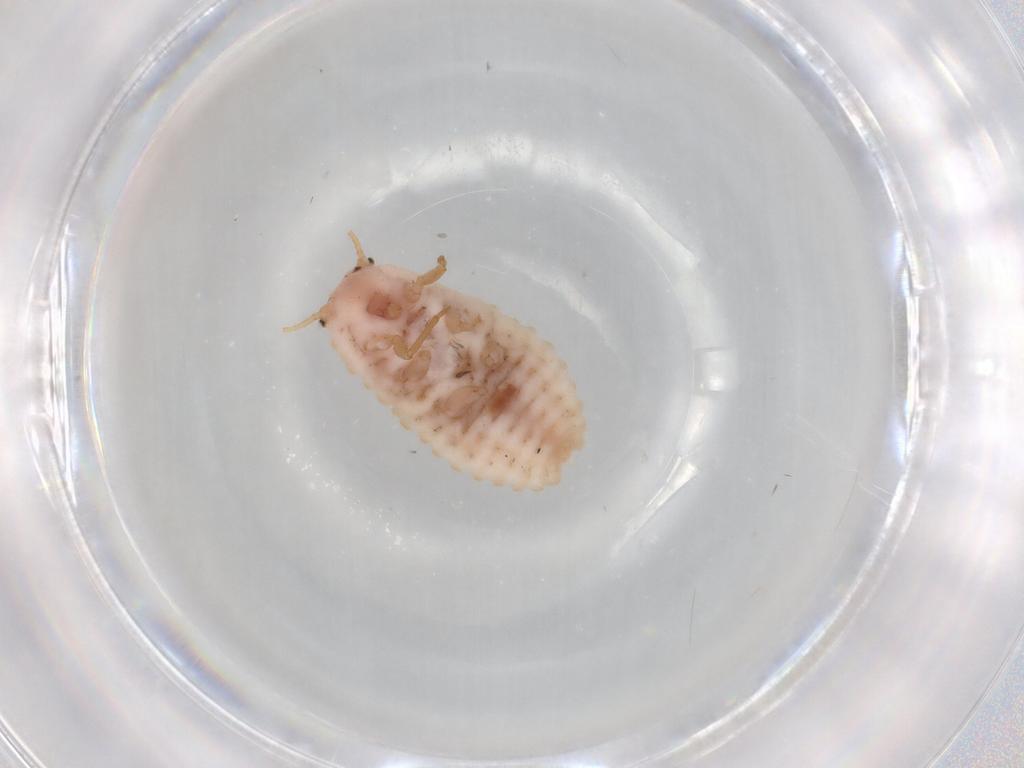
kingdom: Animalia
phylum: Arthropoda
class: Insecta
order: Hemiptera
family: Coccoidea_incertae_sedis
